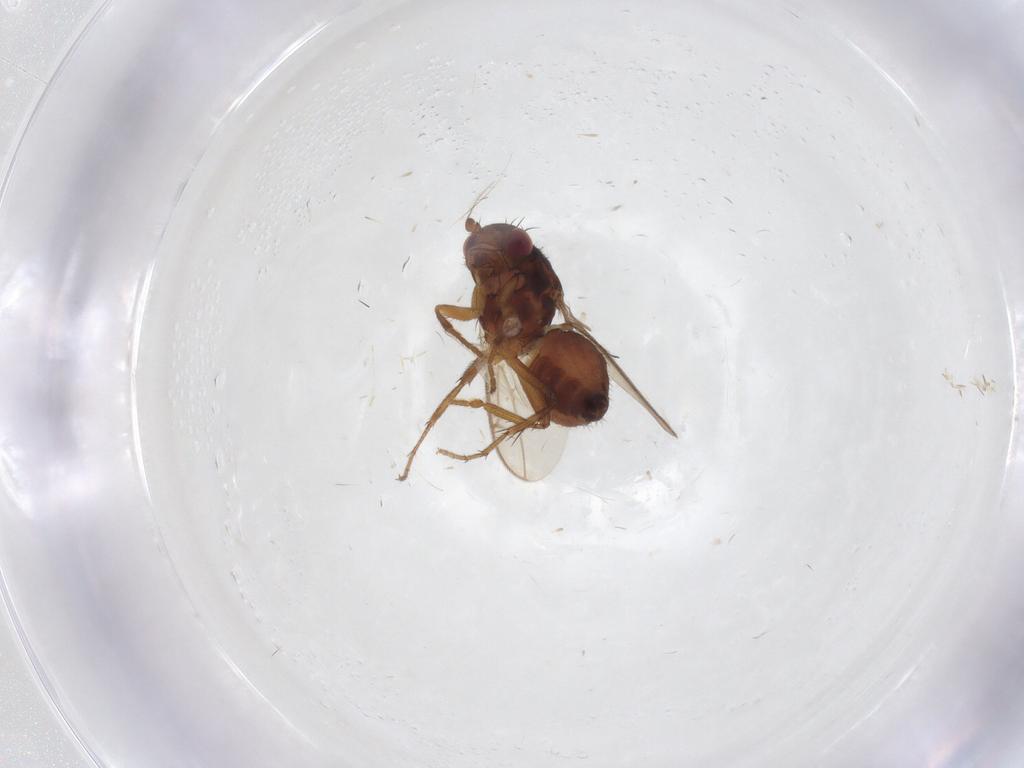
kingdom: Animalia
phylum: Arthropoda
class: Insecta
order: Diptera
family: Sphaeroceridae
